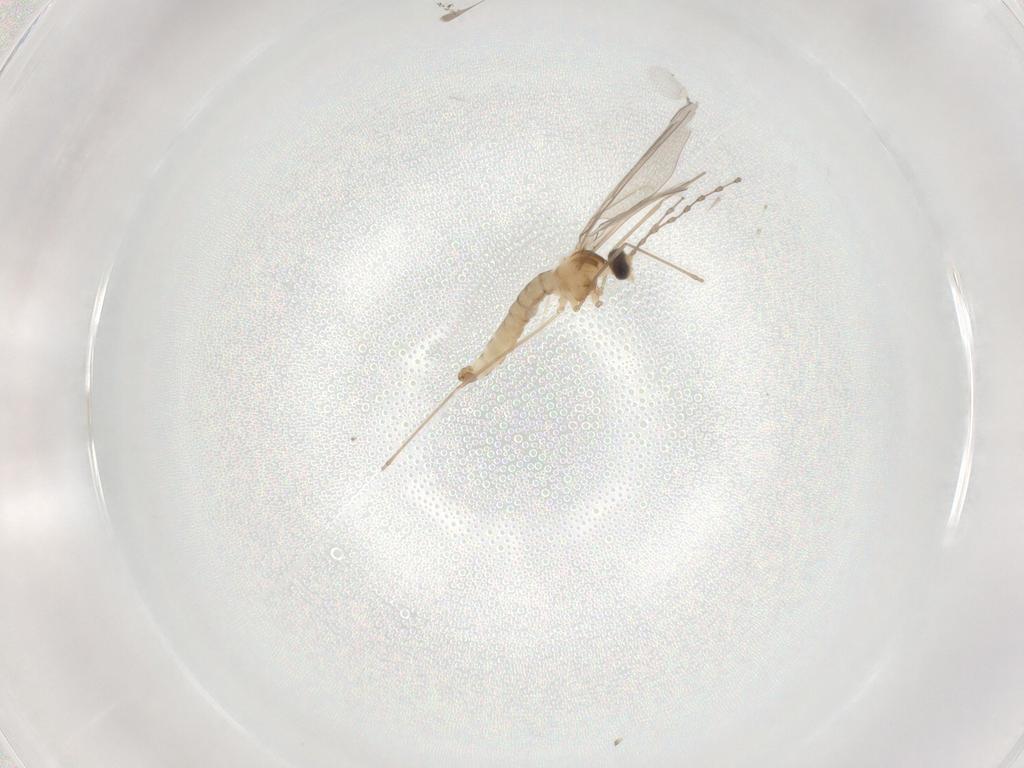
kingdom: Animalia
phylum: Arthropoda
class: Insecta
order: Diptera
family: Cecidomyiidae
